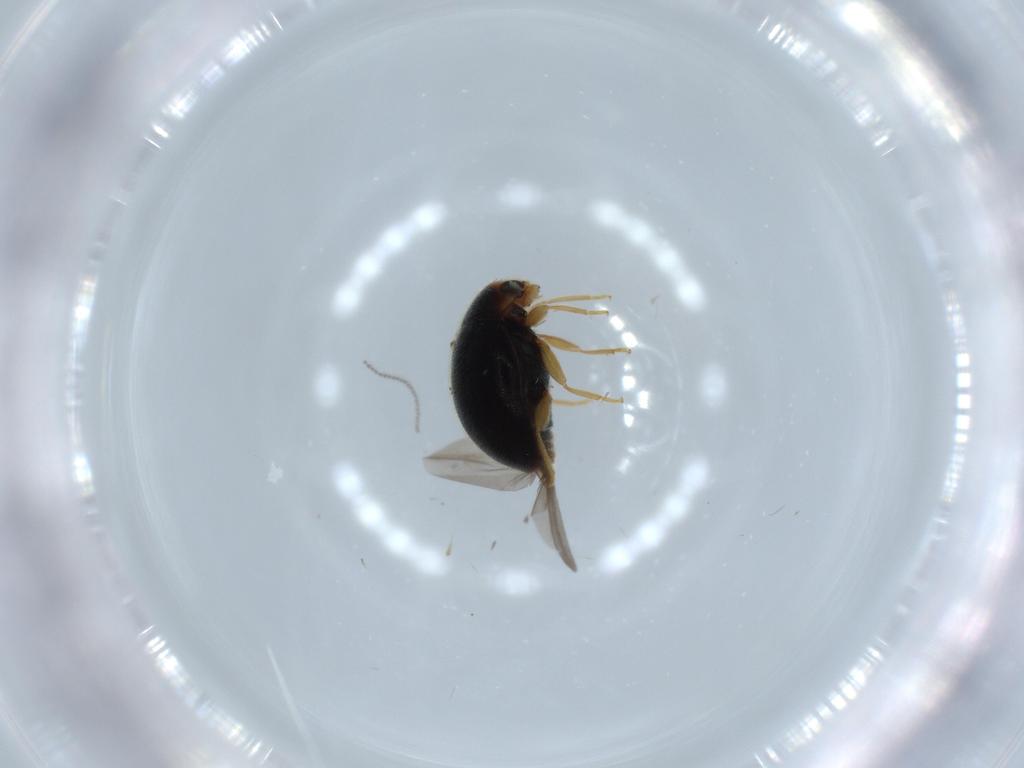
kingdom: Animalia
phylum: Arthropoda
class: Insecta
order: Coleoptera
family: Coccinellidae
